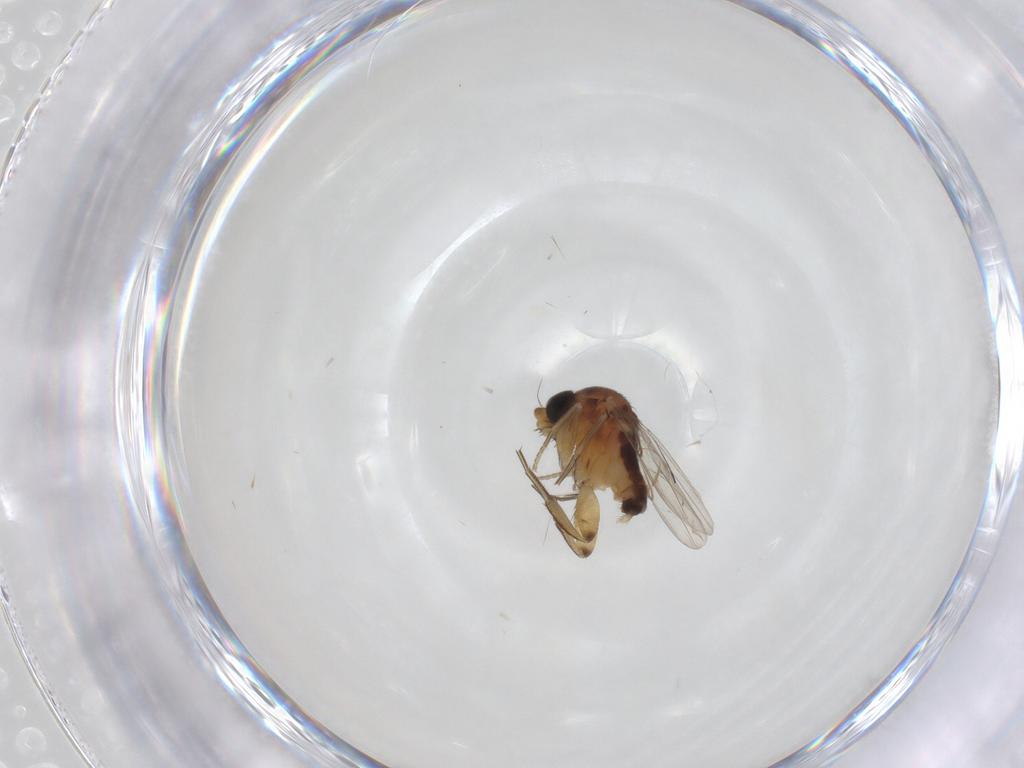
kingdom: Animalia
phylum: Arthropoda
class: Insecta
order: Diptera
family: Phoridae
